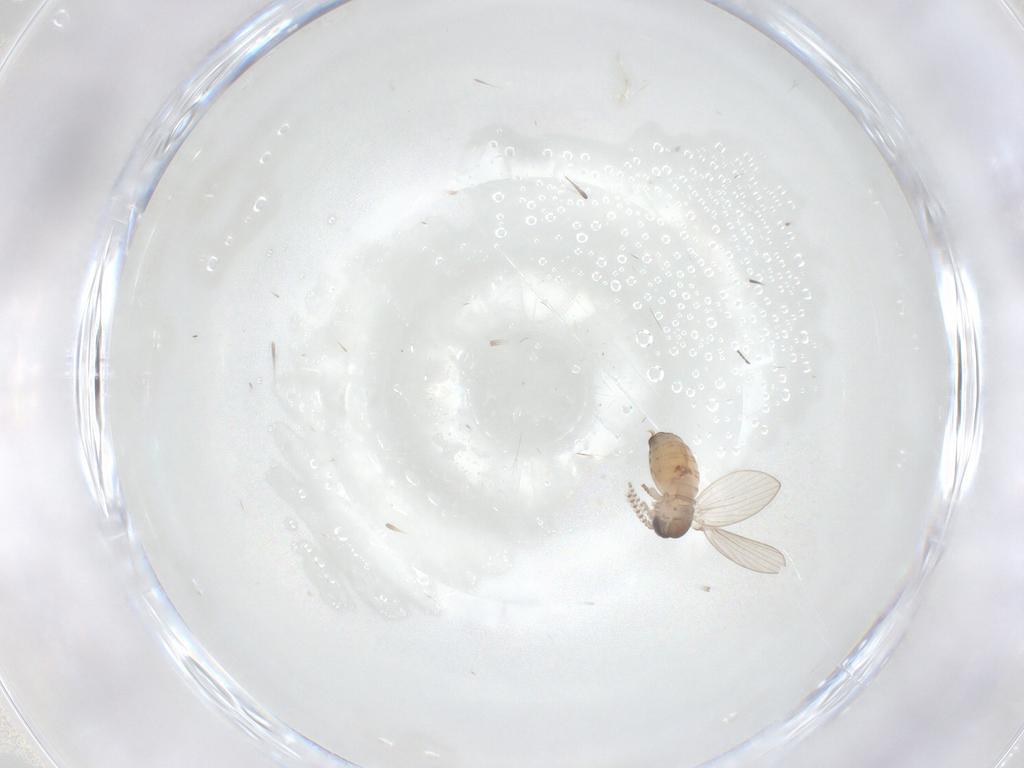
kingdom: Animalia
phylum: Arthropoda
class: Insecta
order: Diptera
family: Psychodidae
